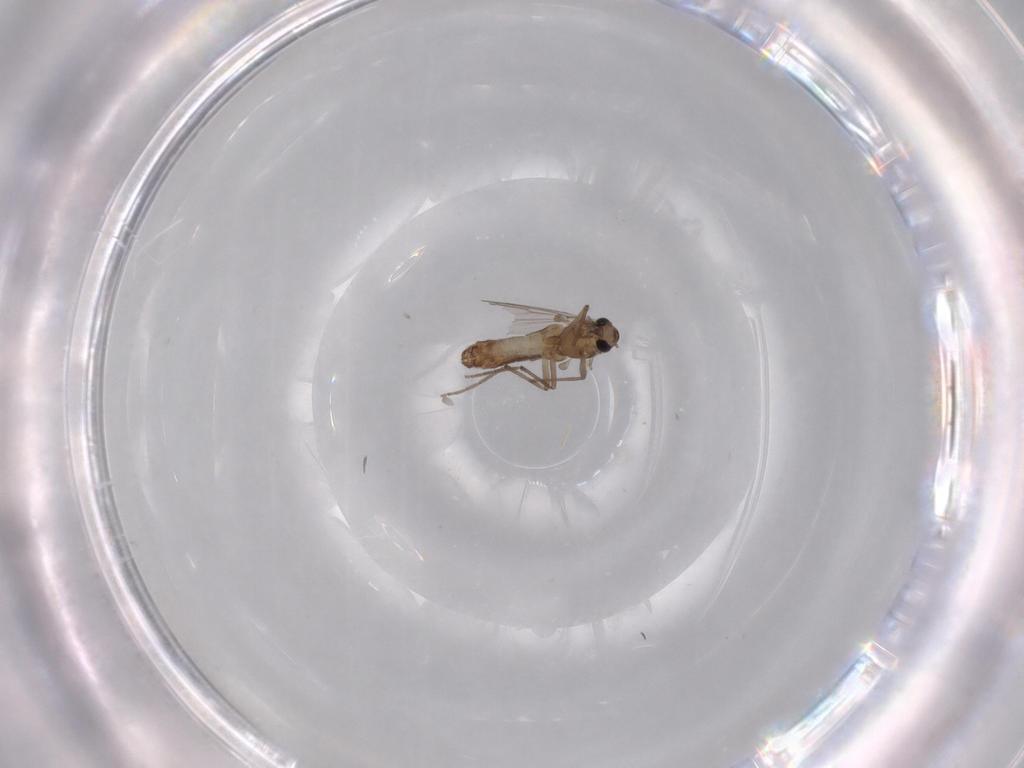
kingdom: Animalia
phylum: Arthropoda
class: Insecta
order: Diptera
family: Chironomidae
